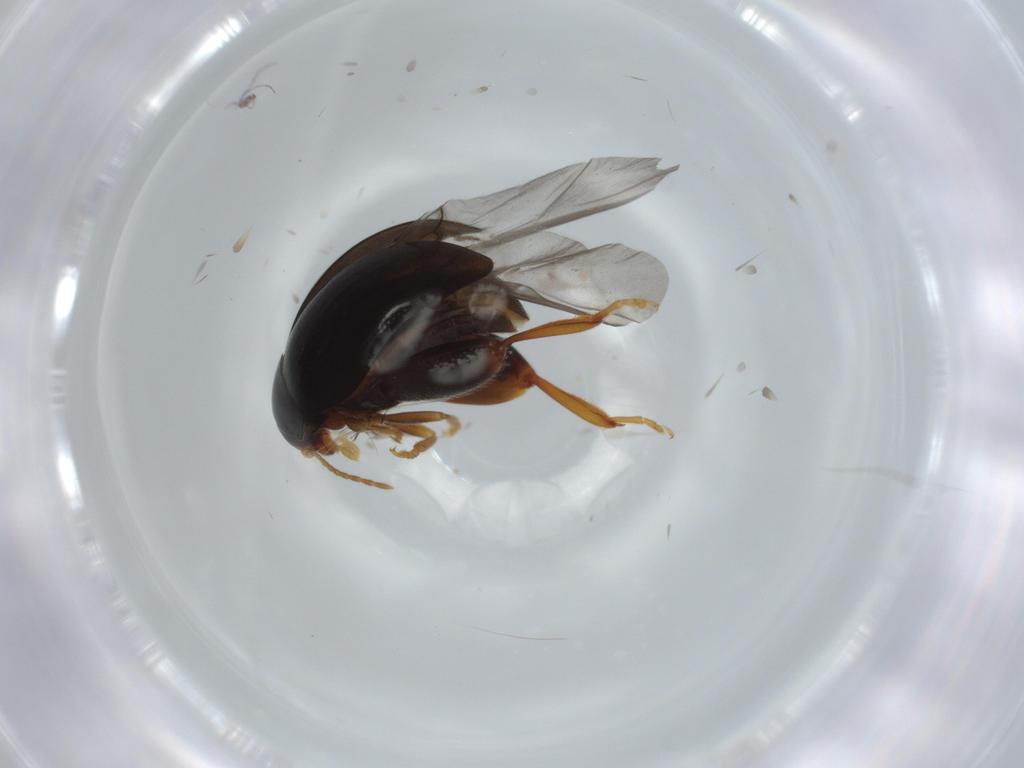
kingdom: Animalia
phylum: Arthropoda
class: Insecta
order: Coleoptera
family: Chrysomelidae
